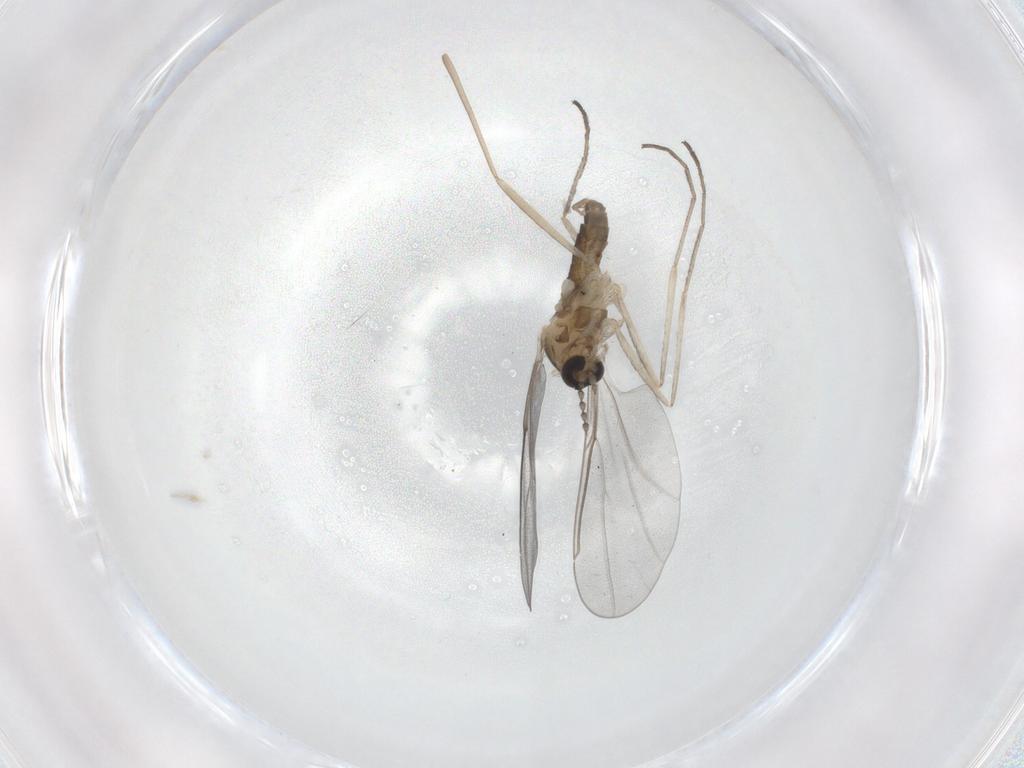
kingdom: Animalia
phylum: Arthropoda
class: Insecta
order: Diptera
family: Cecidomyiidae
